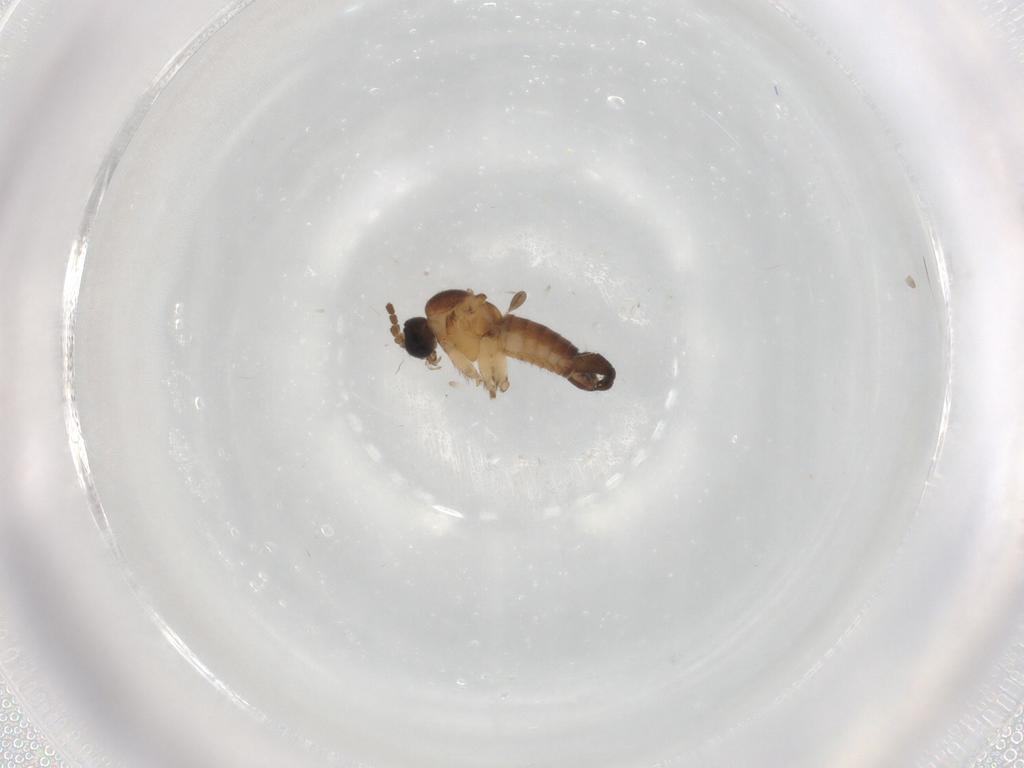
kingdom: Animalia
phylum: Arthropoda
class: Insecta
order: Diptera
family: Sciaridae
